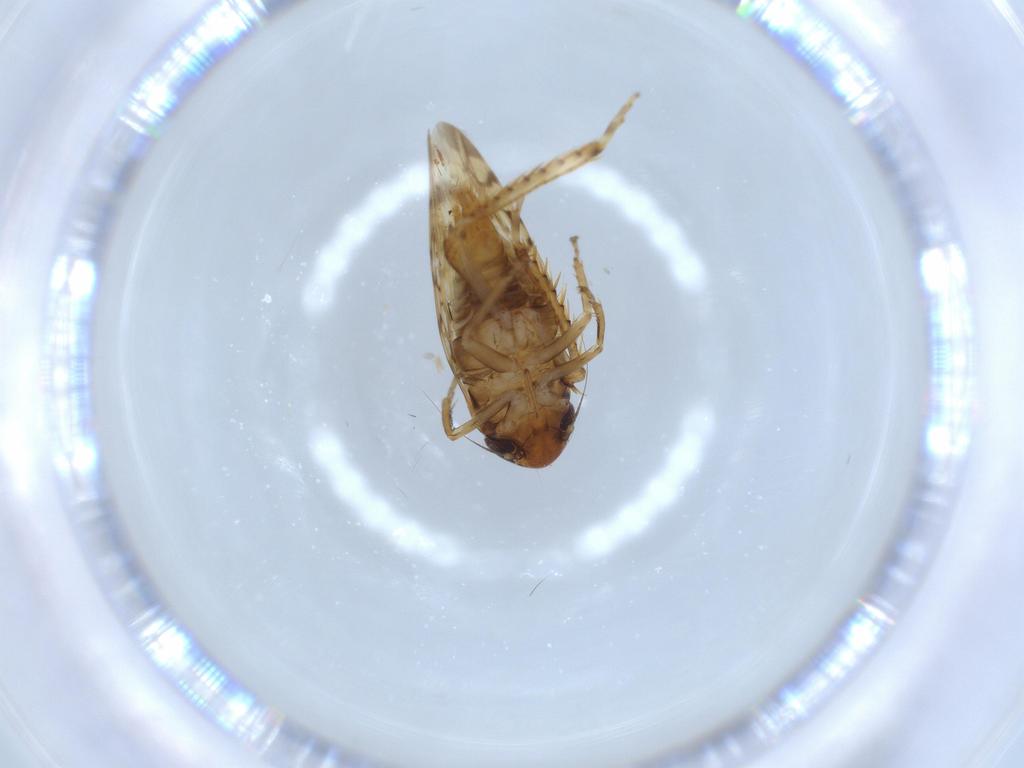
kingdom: Animalia
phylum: Arthropoda
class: Insecta
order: Hemiptera
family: Cicadellidae
